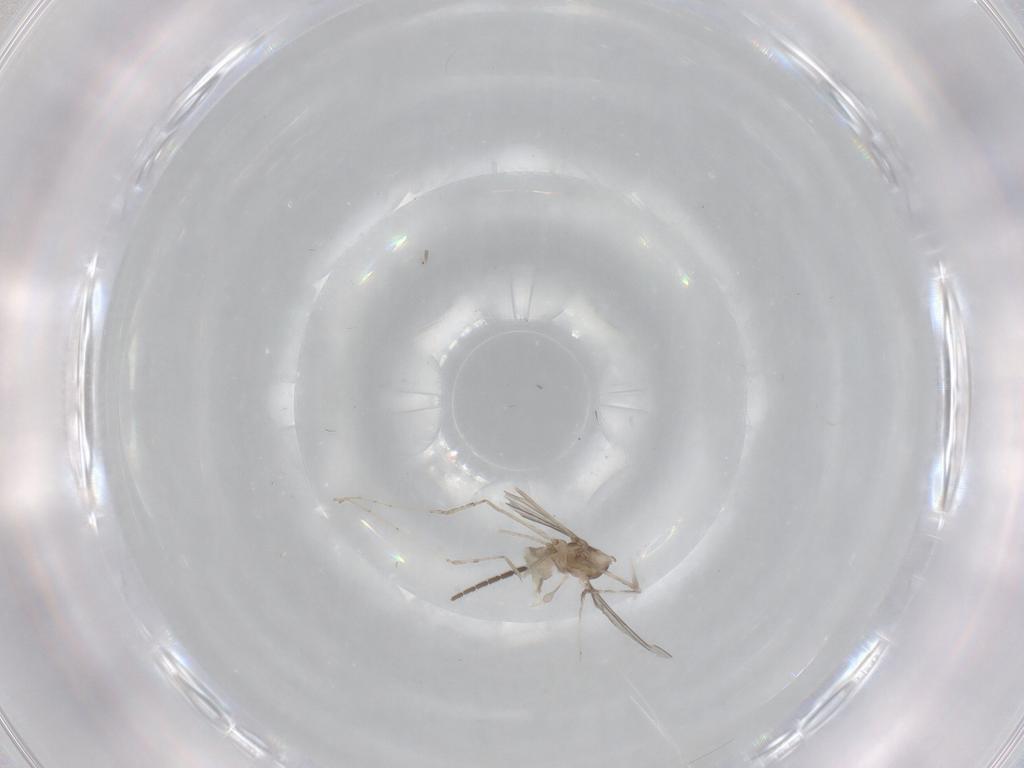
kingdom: Animalia
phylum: Arthropoda
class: Insecta
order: Diptera
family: Cecidomyiidae
